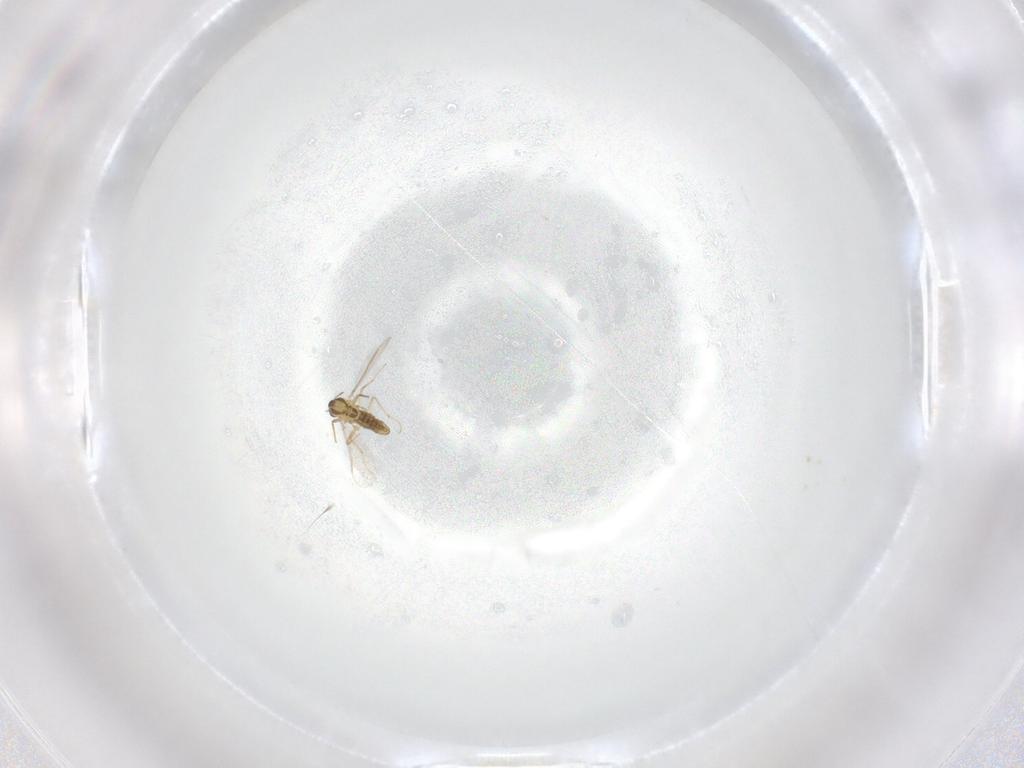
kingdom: Animalia
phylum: Arthropoda
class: Insecta
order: Diptera
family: Chironomidae
